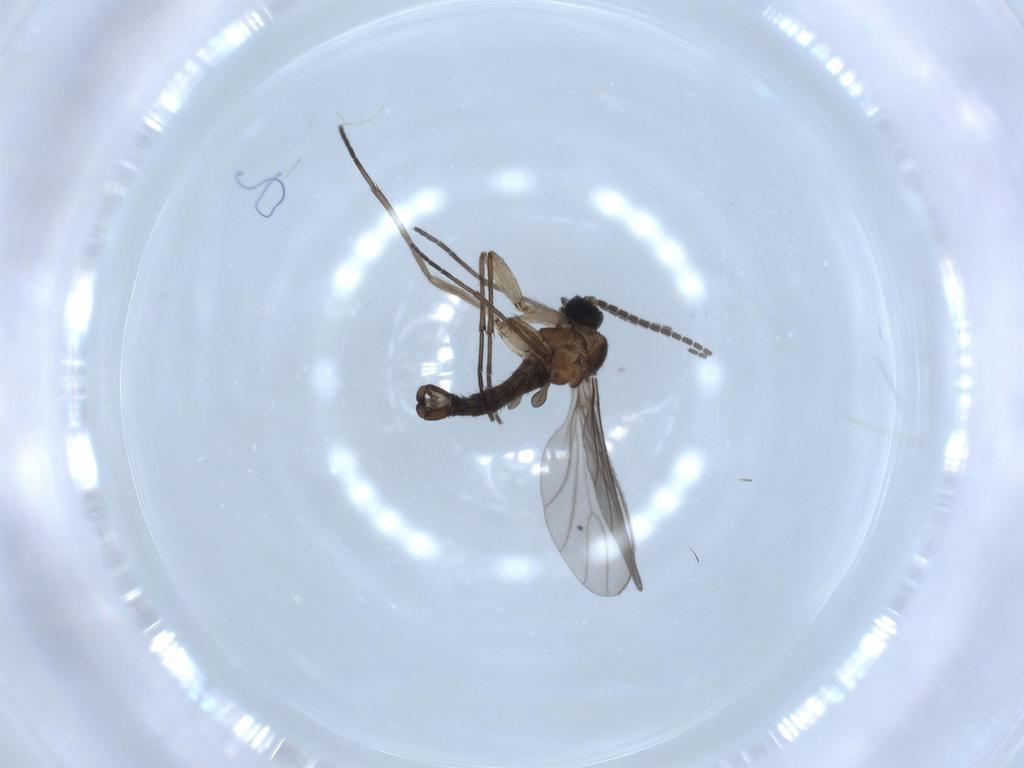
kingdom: Animalia
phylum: Arthropoda
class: Insecta
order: Diptera
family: Sciaridae
